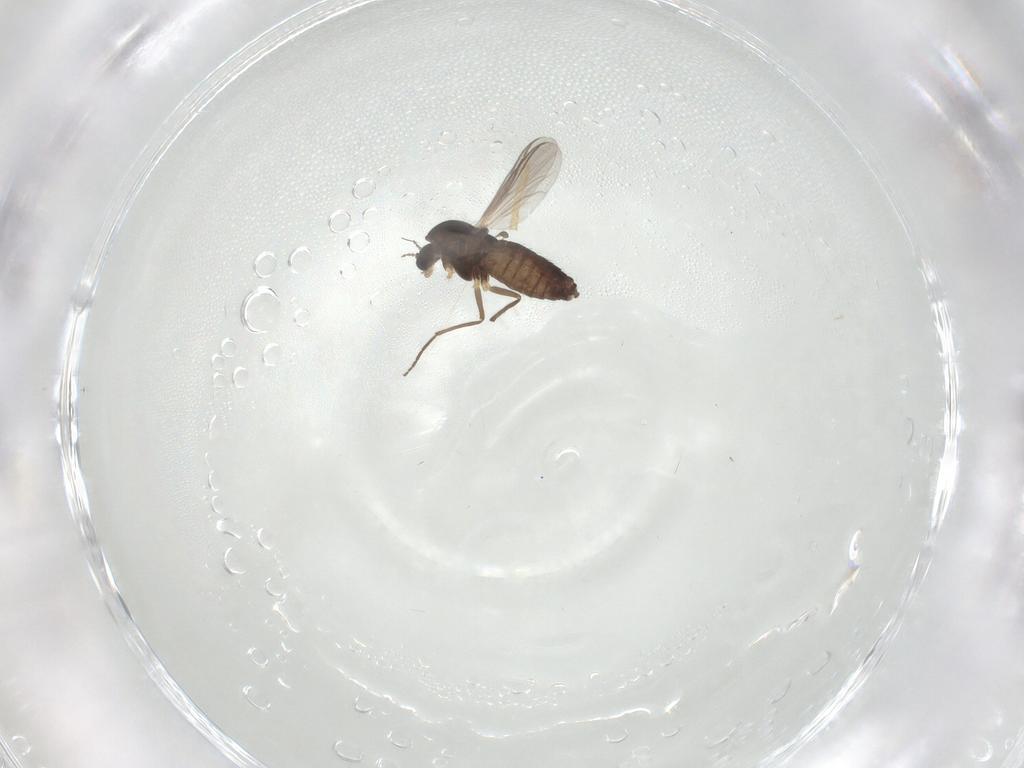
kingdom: Animalia
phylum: Arthropoda
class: Insecta
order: Diptera
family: Chironomidae
